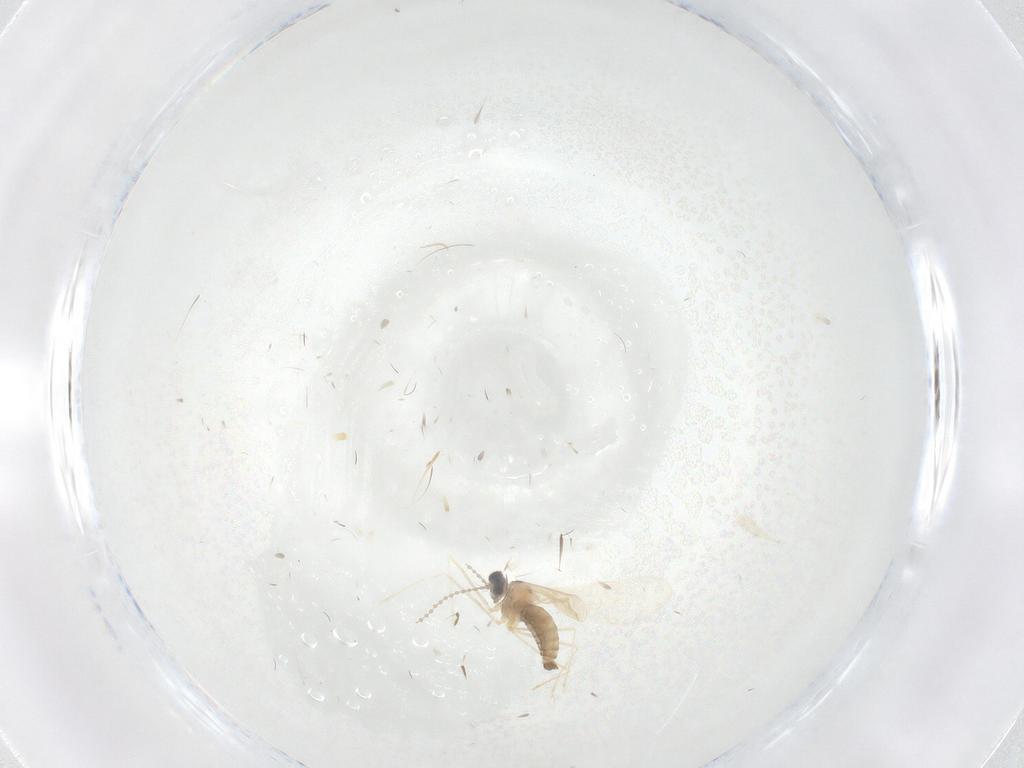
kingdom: Animalia
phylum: Arthropoda
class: Insecta
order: Diptera
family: Cecidomyiidae
